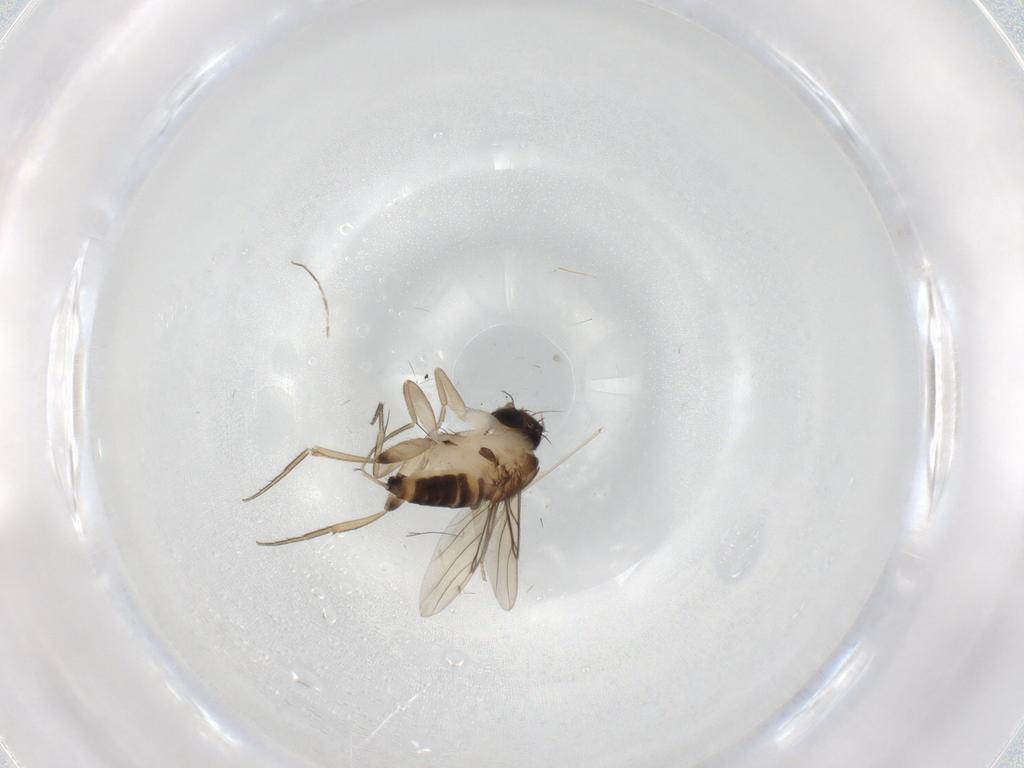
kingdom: Animalia
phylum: Arthropoda
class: Insecta
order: Diptera
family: Phoridae
